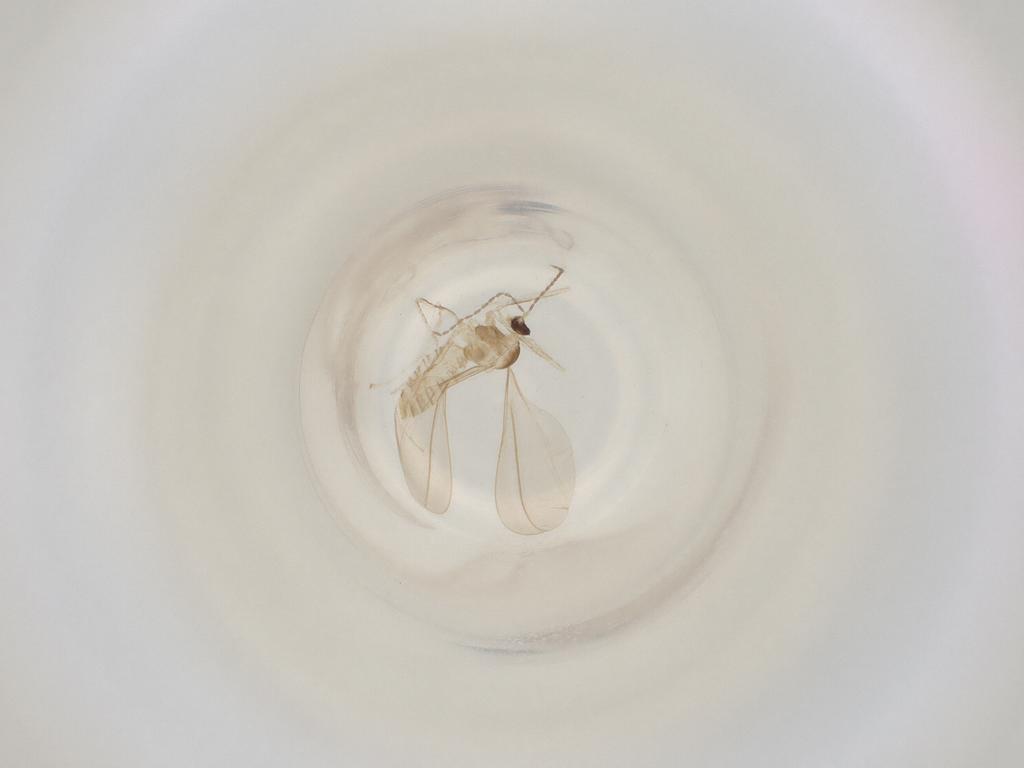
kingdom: Animalia
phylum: Arthropoda
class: Insecta
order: Diptera
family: Cecidomyiidae
